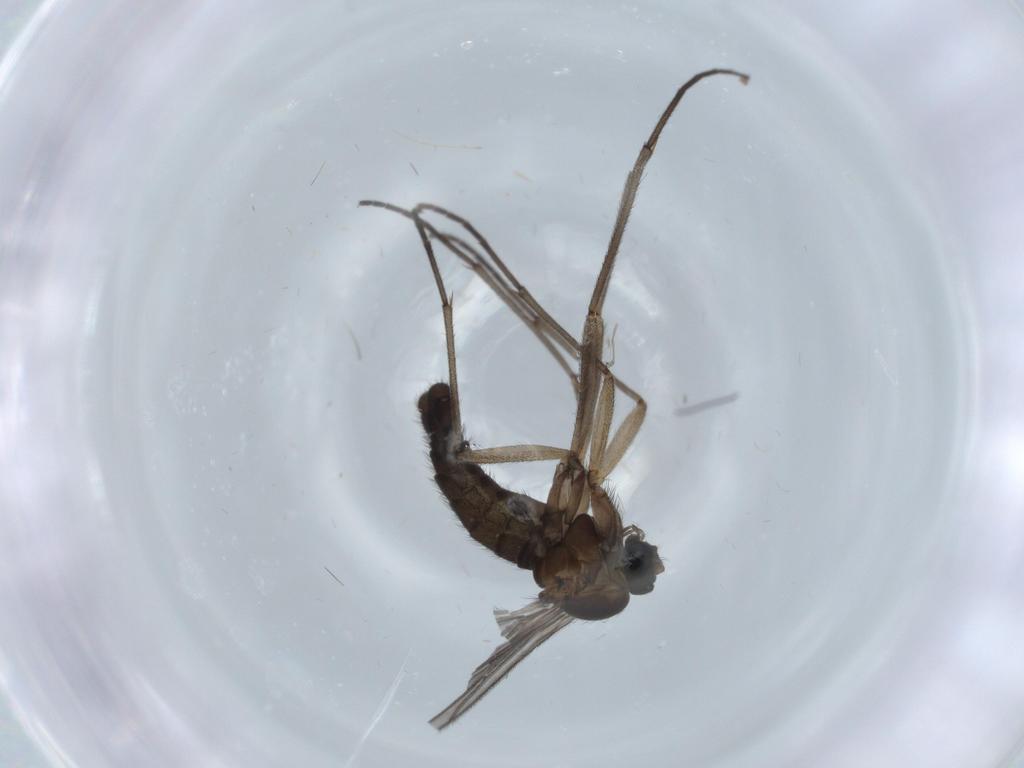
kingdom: Animalia
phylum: Arthropoda
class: Insecta
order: Diptera
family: Sciaridae
